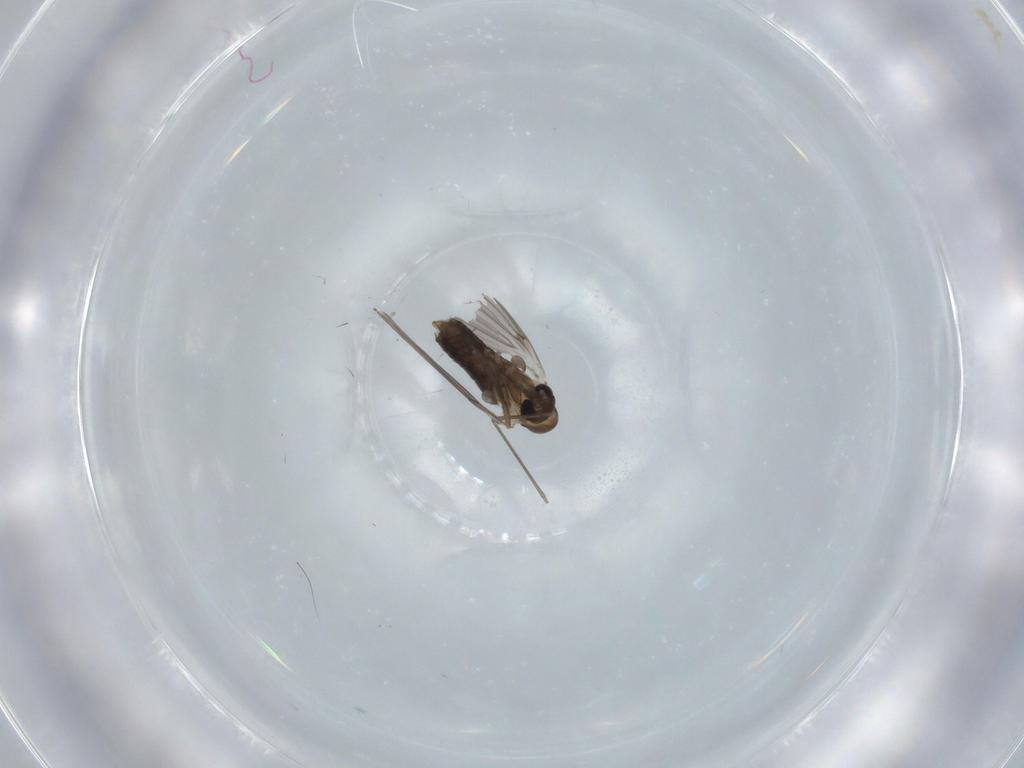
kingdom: Animalia
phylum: Arthropoda
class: Insecta
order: Diptera
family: Cecidomyiidae
